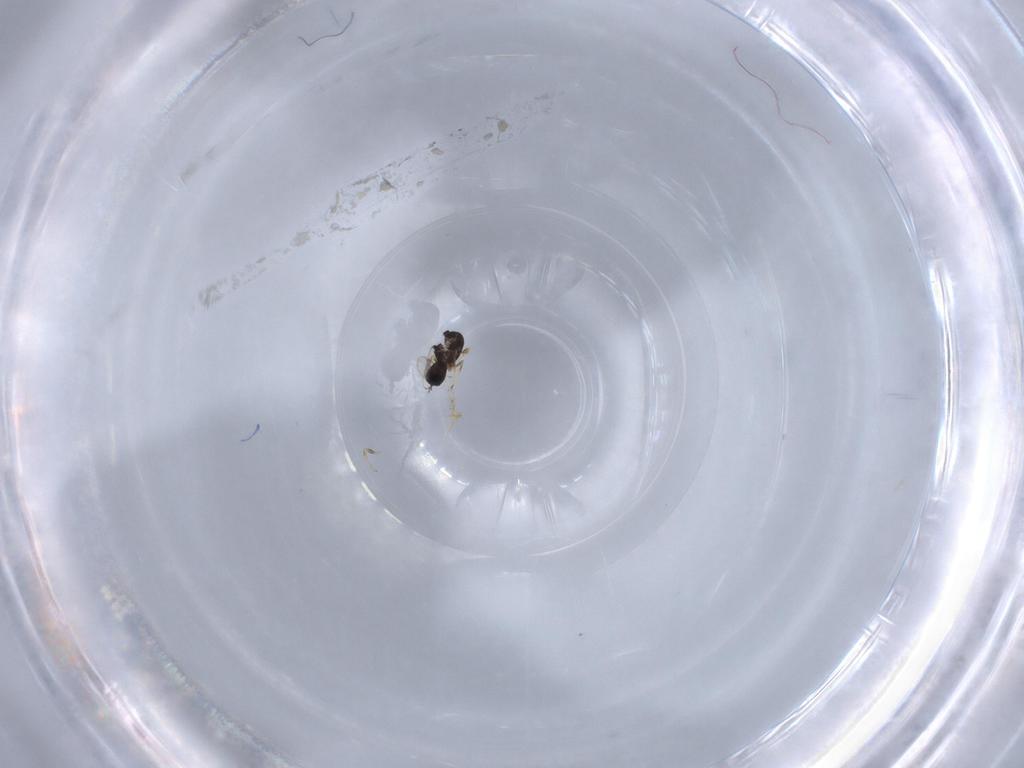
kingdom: Animalia
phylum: Arthropoda
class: Insecta
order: Hymenoptera
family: Scelionidae
